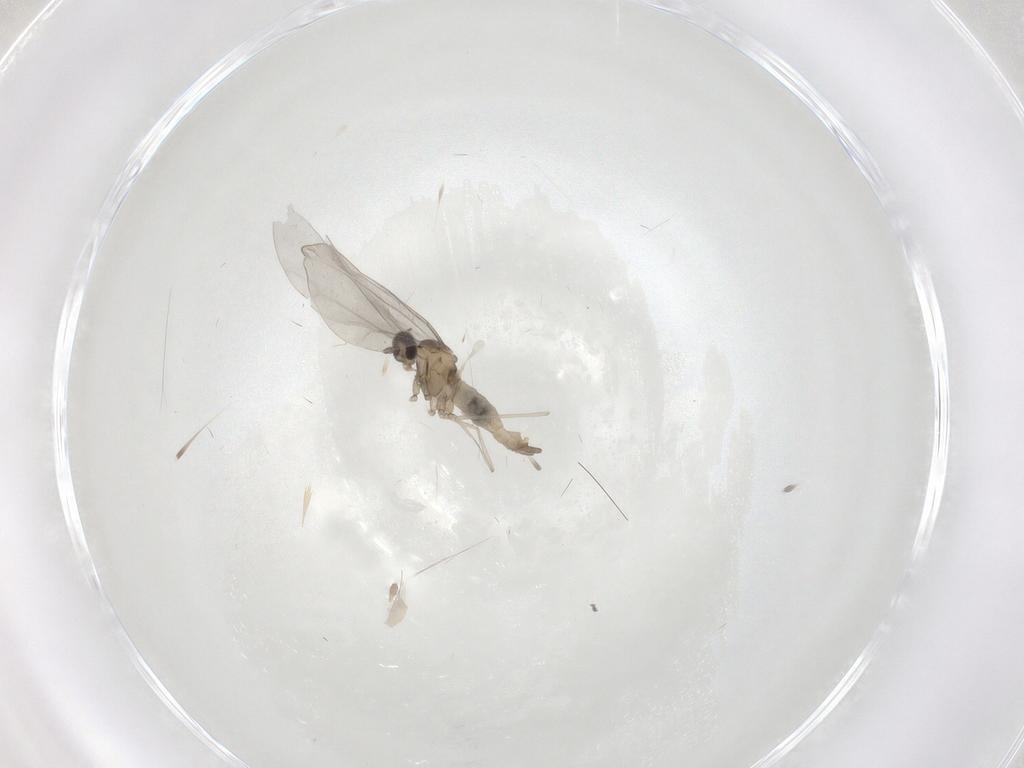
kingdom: Animalia
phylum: Arthropoda
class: Insecta
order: Diptera
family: Cecidomyiidae
